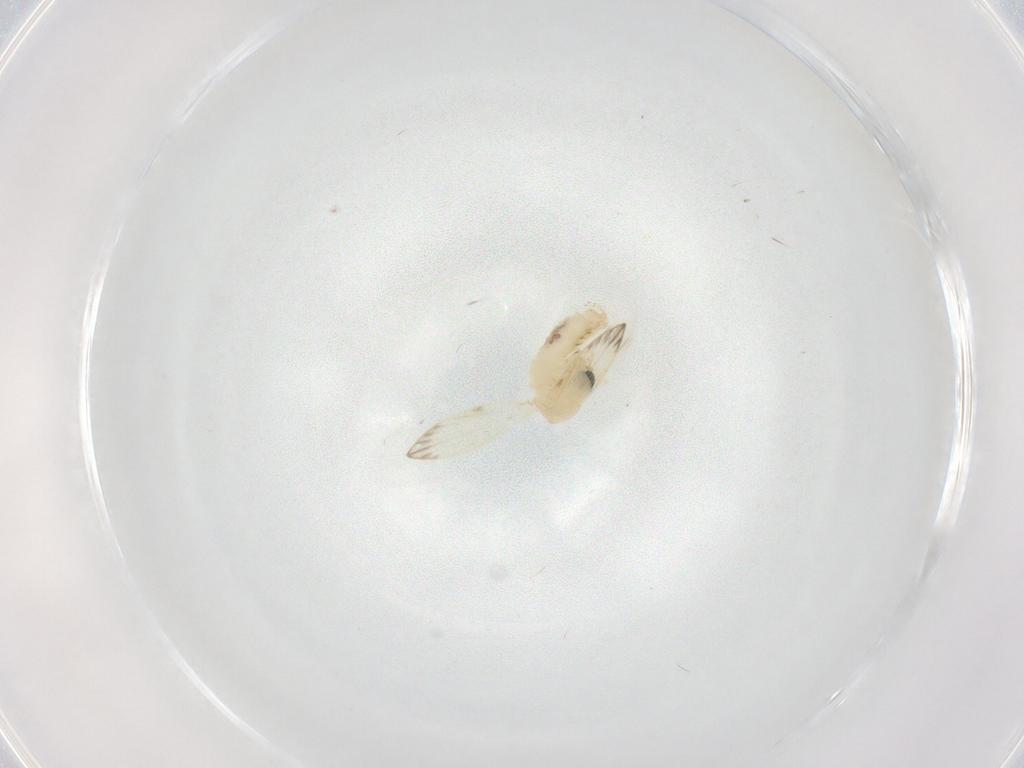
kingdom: Animalia
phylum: Arthropoda
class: Insecta
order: Diptera
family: Psychodidae
